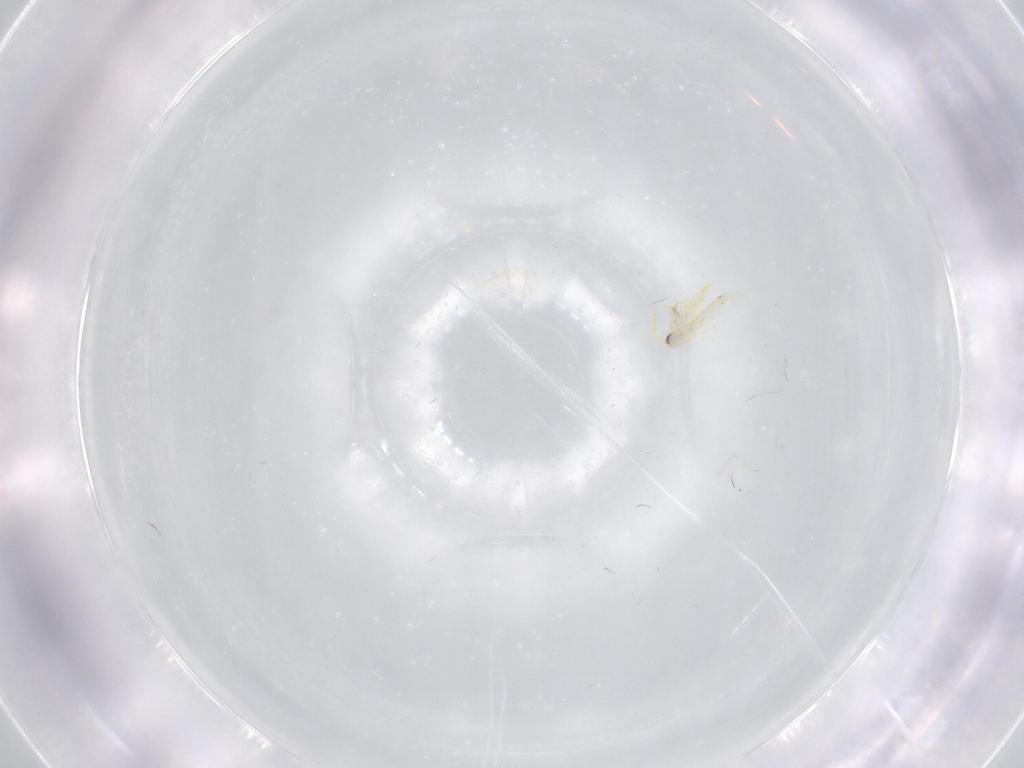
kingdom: Animalia
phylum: Arthropoda
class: Insecta
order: Hemiptera
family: Aleyrodidae
